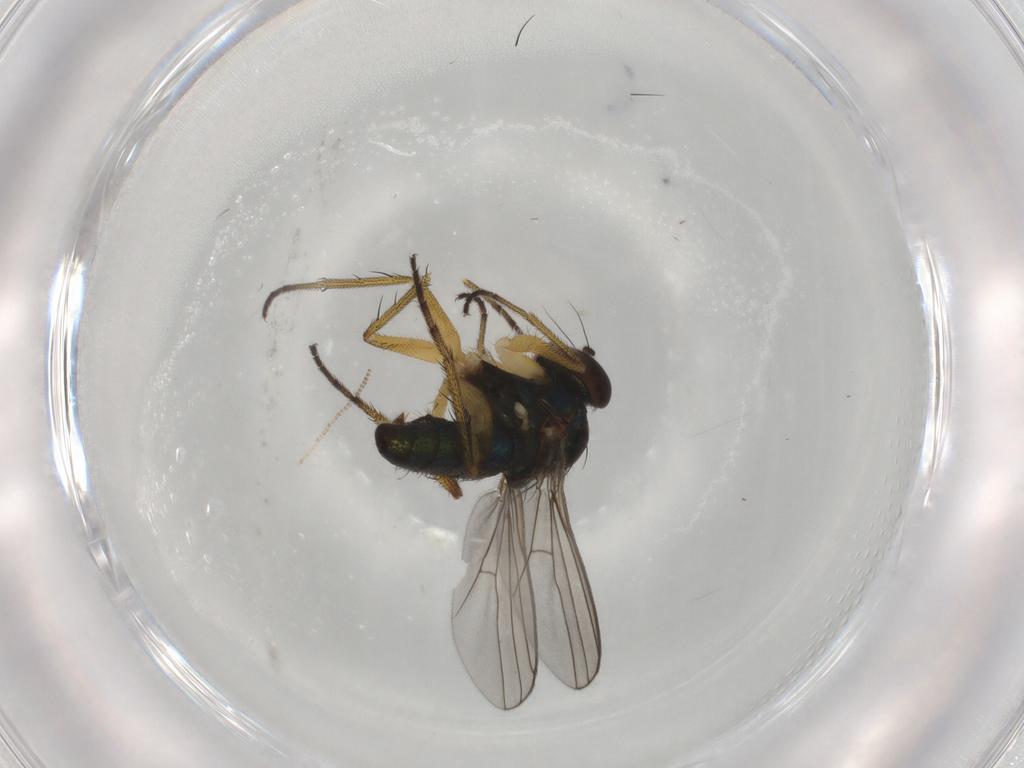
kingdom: Animalia
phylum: Arthropoda
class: Insecta
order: Diptera
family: Dolichopodidae
